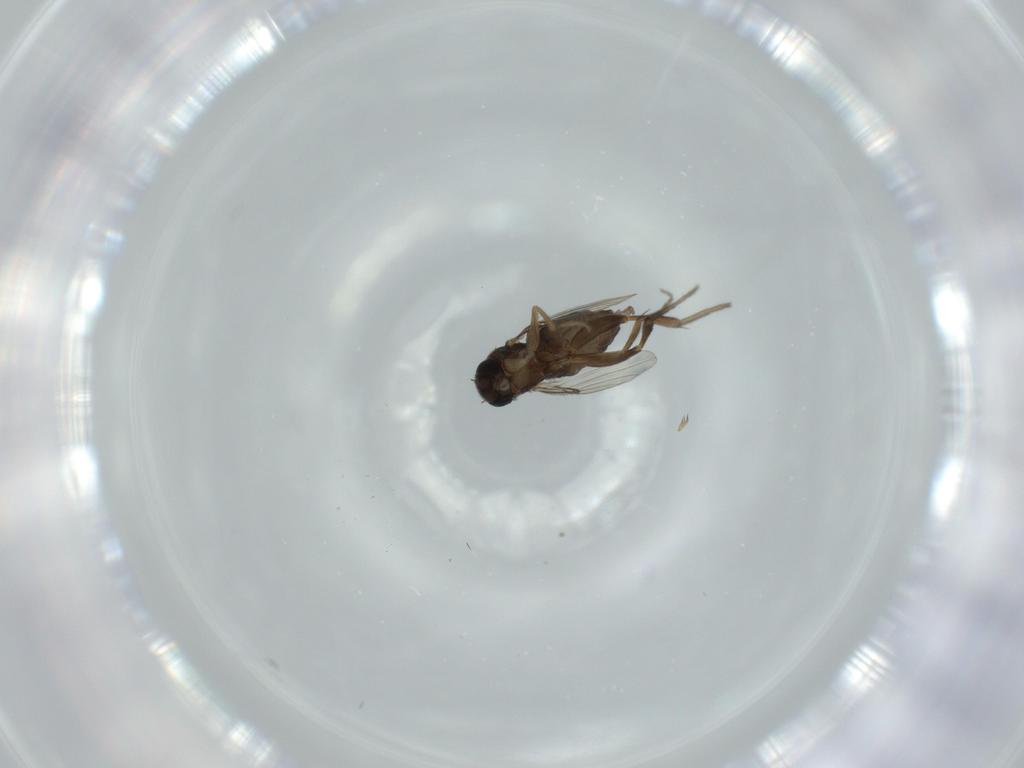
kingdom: Animalia
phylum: Arthropoda
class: Insecta
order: Diptera
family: Phoridae
